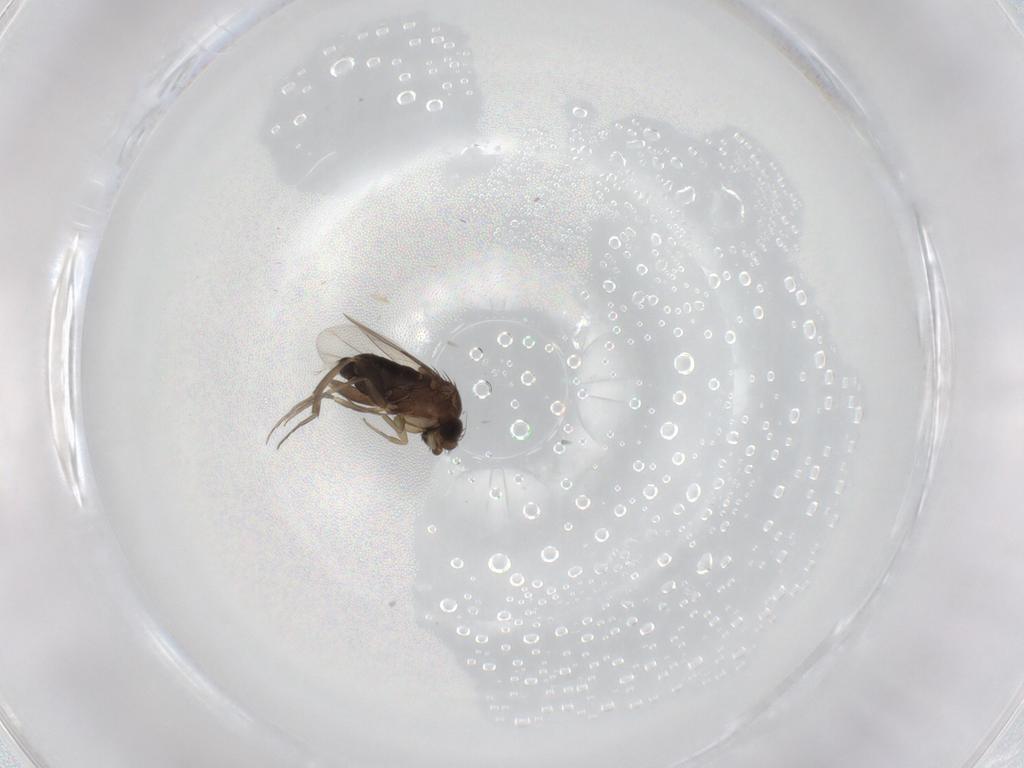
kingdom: Animalia
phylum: Arthropoda
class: Insecta
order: Diptera
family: Phoridae
